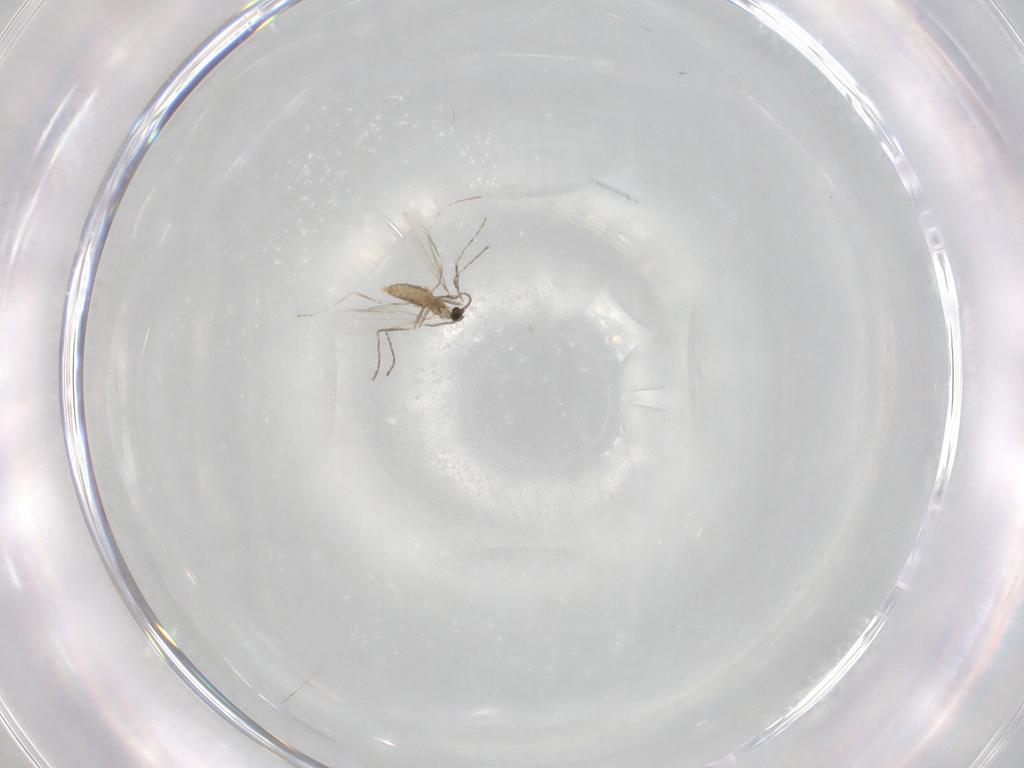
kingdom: Animalia
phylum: Arthropoda
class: Insecta
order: Diptera
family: Cecidomyiidae
